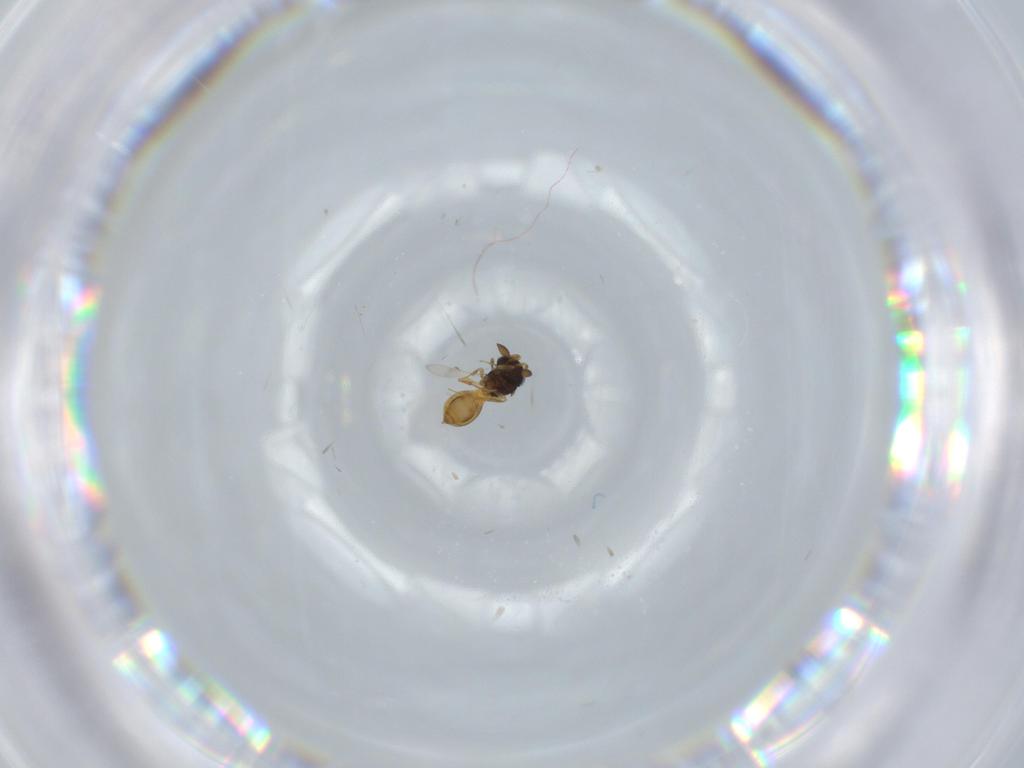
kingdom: Animalia
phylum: Arthropoda
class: Insecta
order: Hymenoptera
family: Scelionidae
